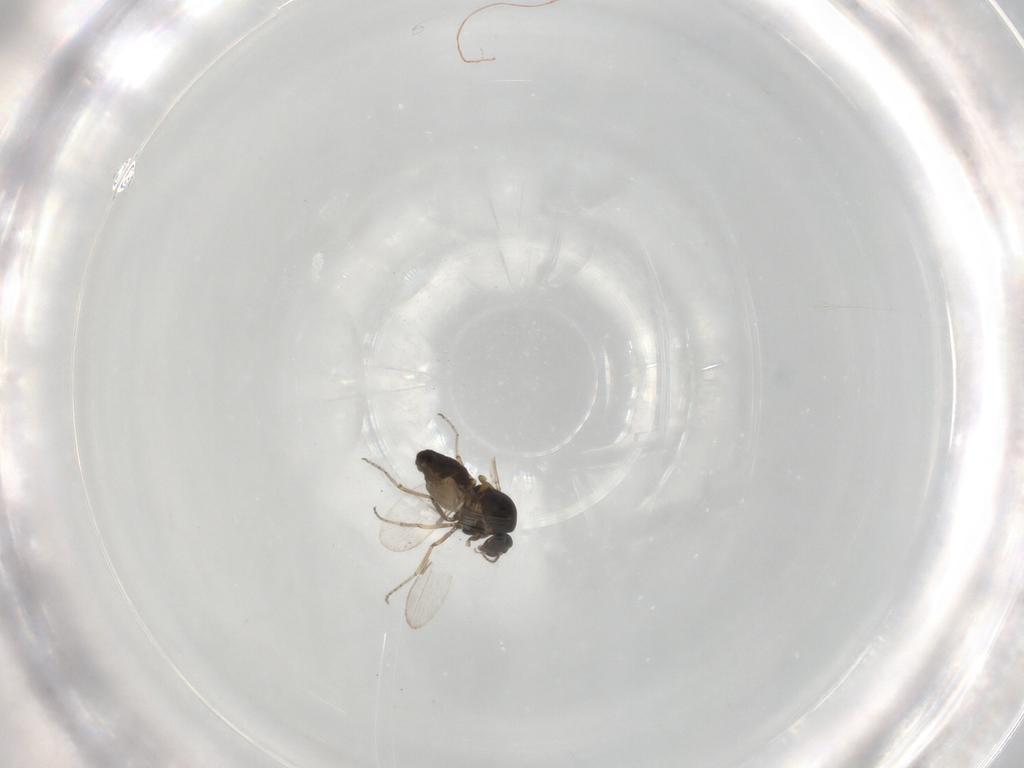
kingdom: Animalia
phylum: Arthropoda
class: Insecta
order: Diptera
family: Ceratopogonidae
